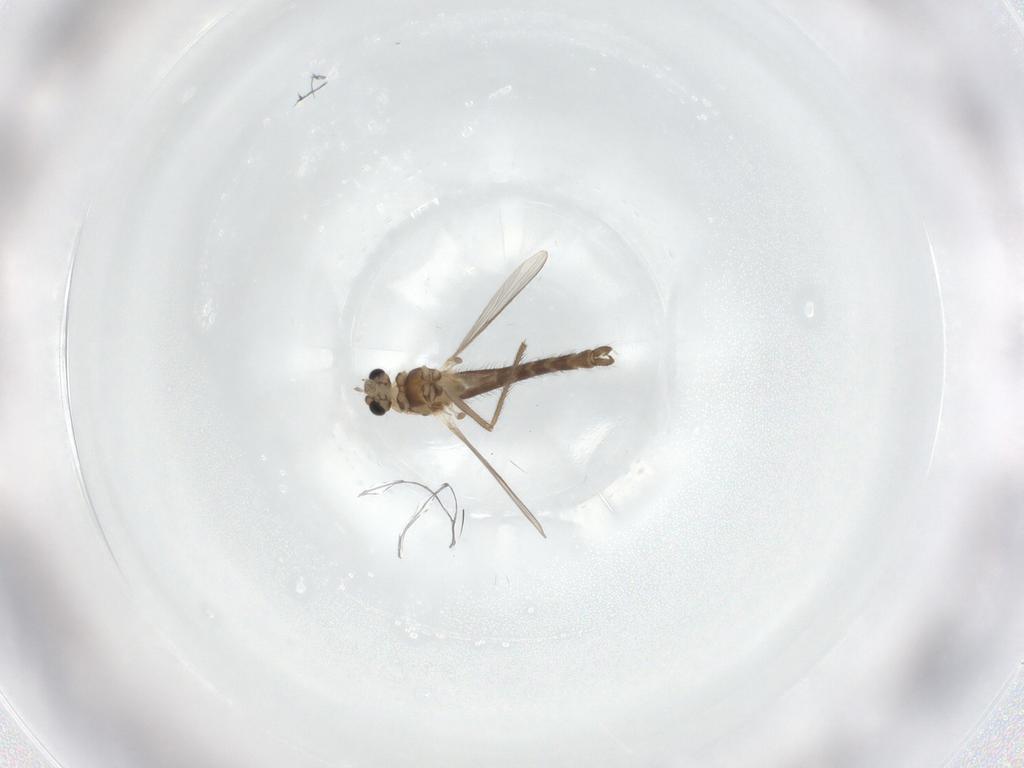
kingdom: Animalia
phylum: Arthropoda
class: Insecta
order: Diptera
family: Chironomidae
